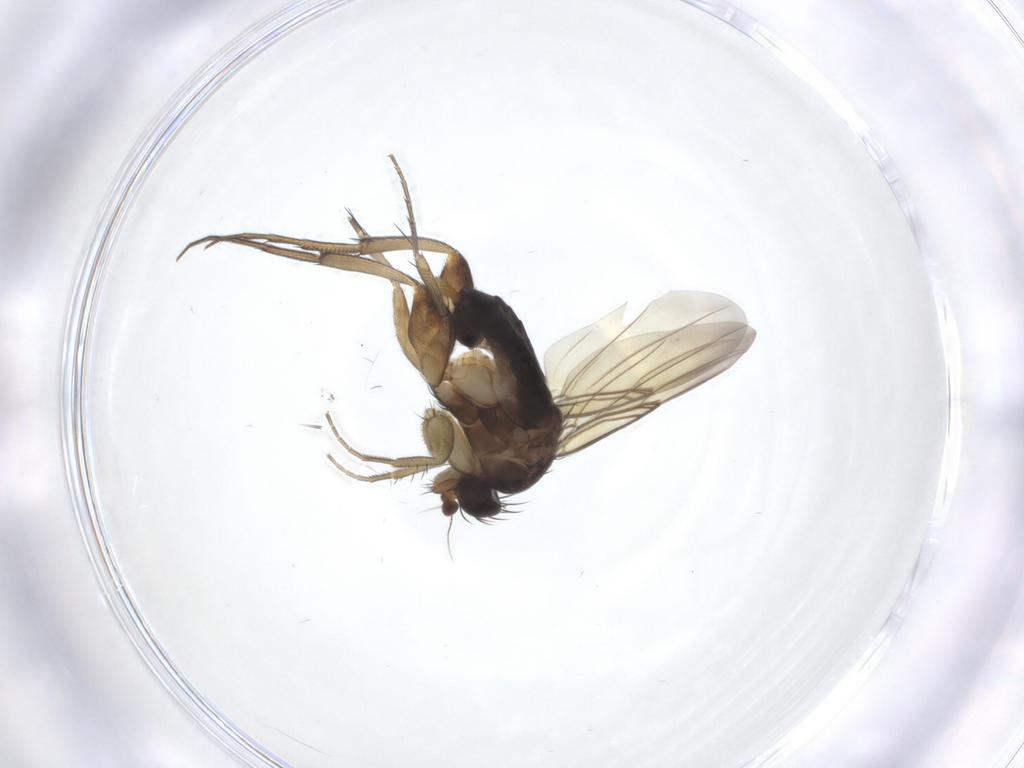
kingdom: Animalia
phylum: Arthropoda
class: Insecta
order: Diptera
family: Phoridae
